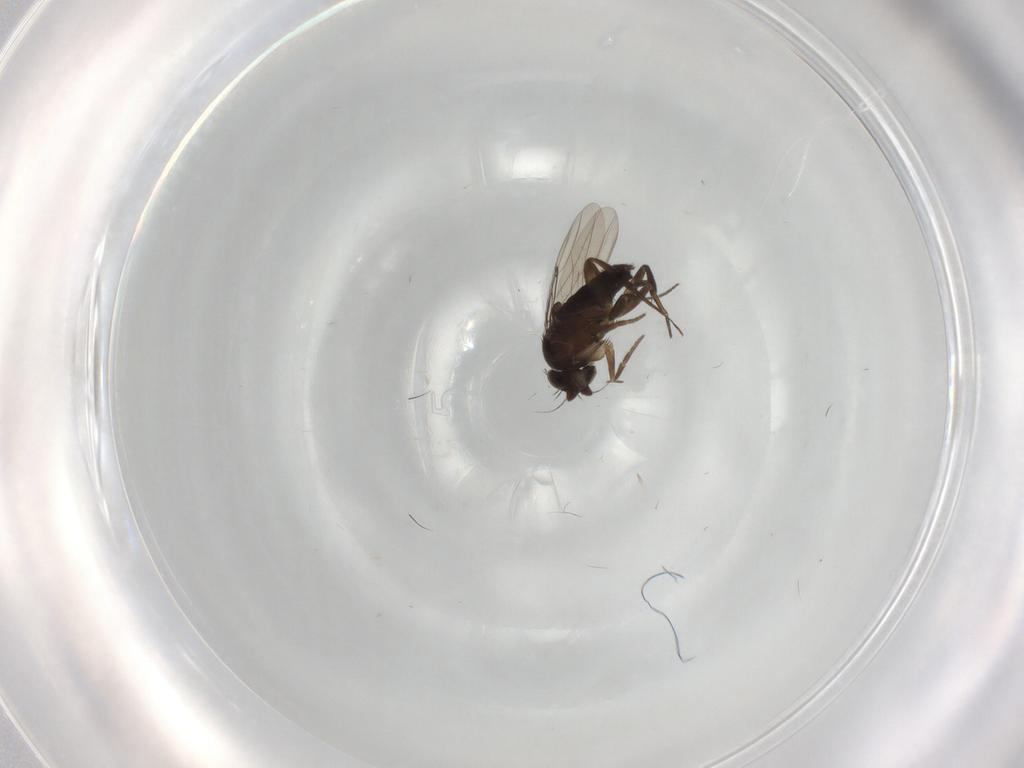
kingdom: Animalia
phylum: Arthropoda
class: Insecta
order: Diptera
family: Phoridae
